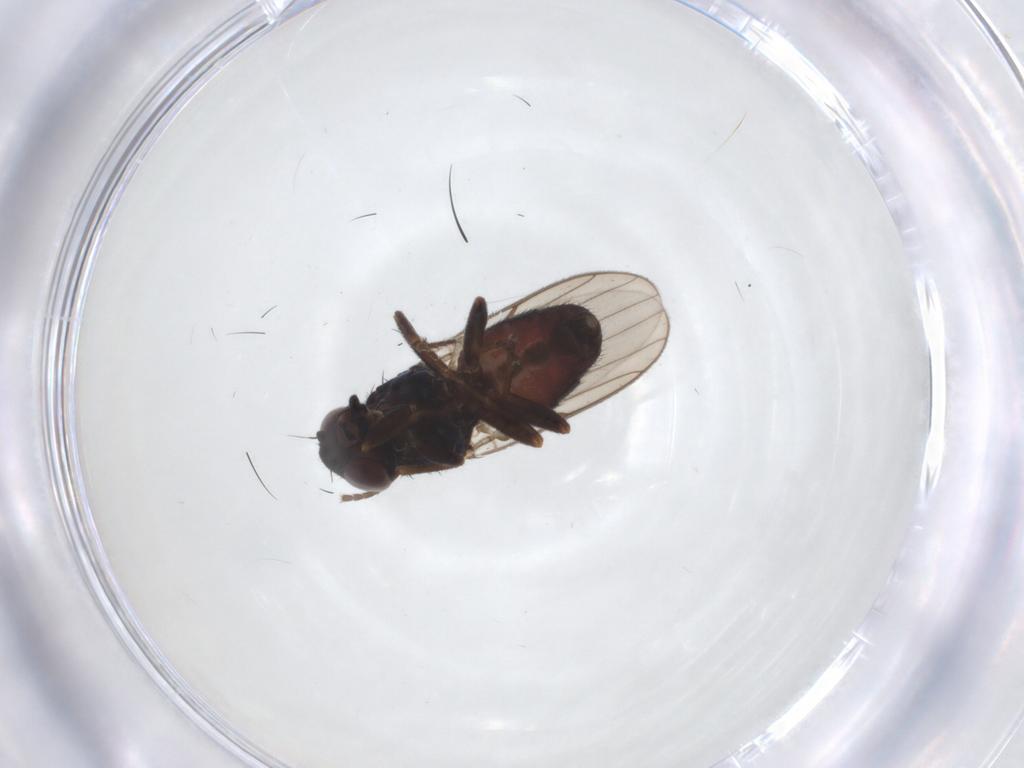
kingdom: Animalia
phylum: Arthropoda
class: Insecta
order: Diptera
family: Chloropidae
